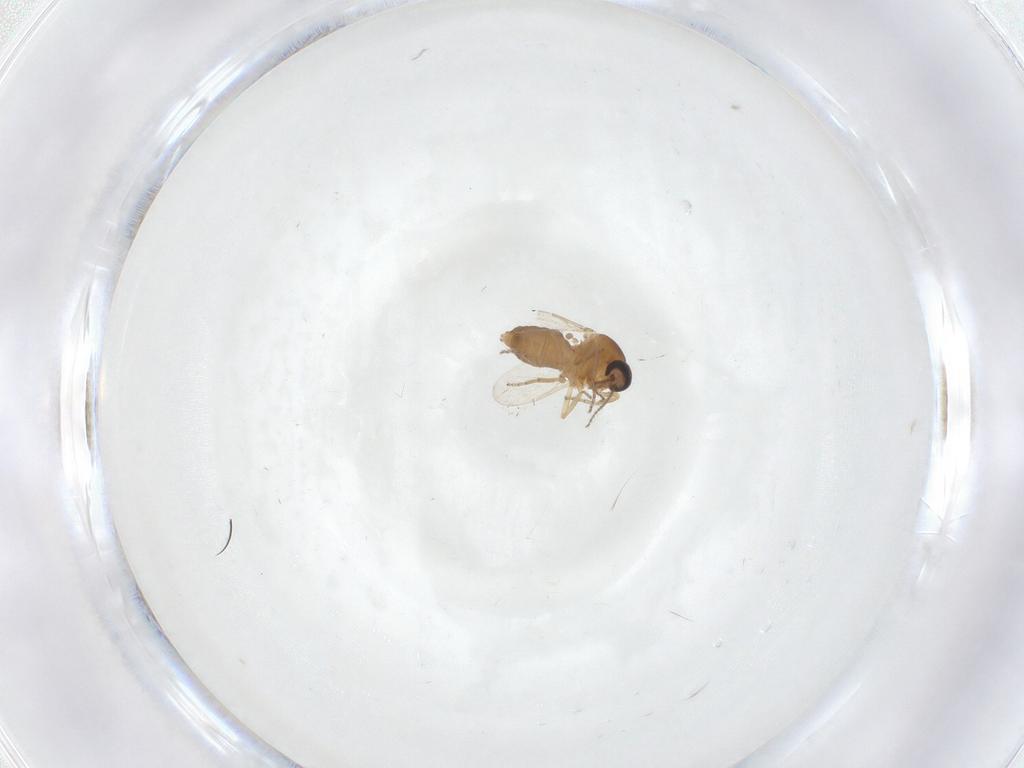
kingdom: Animalia
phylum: Arthropoda
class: Insecta
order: Diptera
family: Ceratopogonidae
